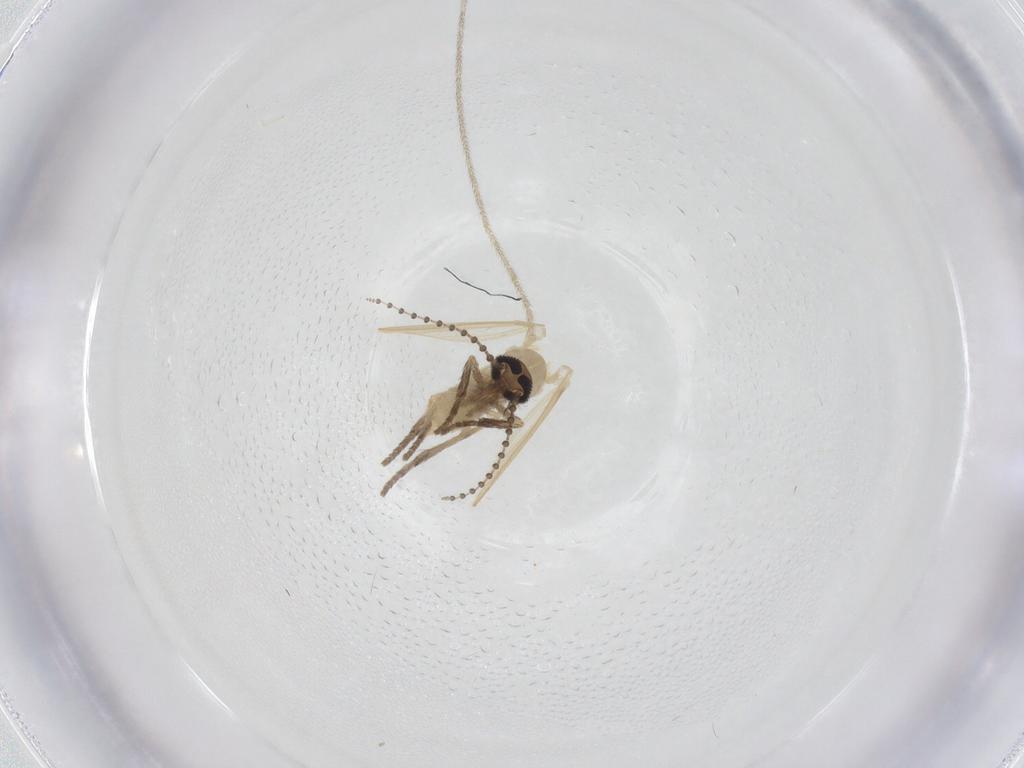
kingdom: Animalia
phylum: Arthropoda
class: Insecta
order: Diptera
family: Psychodidae
